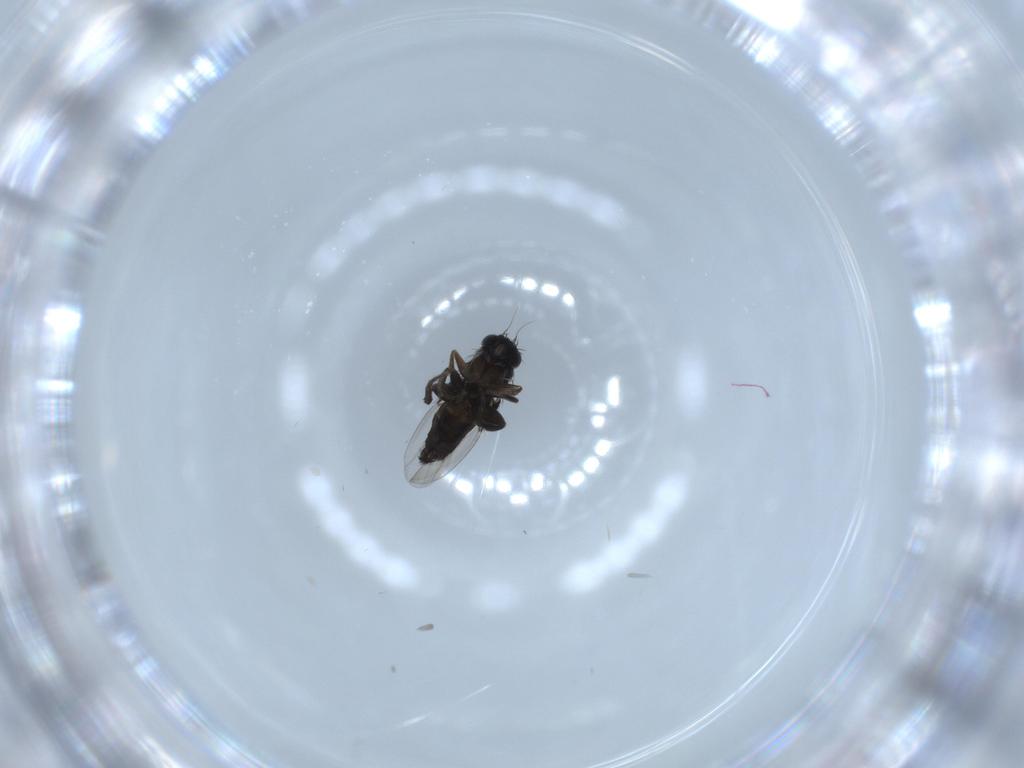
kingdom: Animalia
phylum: Arthropoda
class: Insecta
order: Diptera
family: Phoridae
